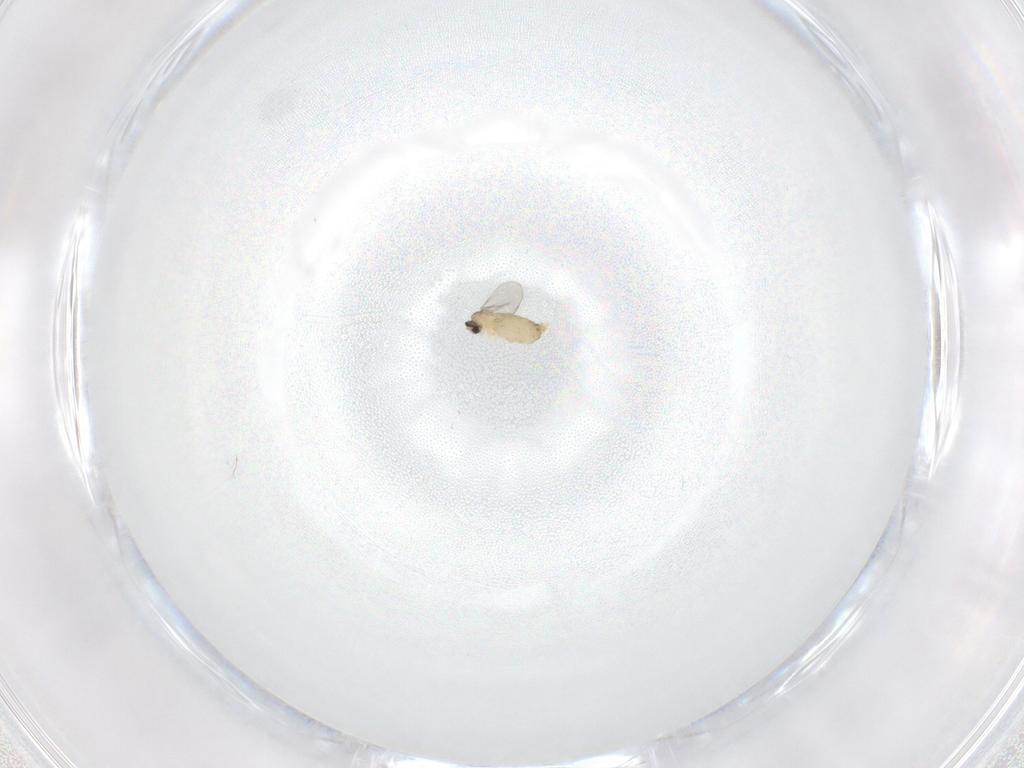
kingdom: Animalia
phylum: Arthropoda
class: Insecta
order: Diptera
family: Cecidomyiidae
